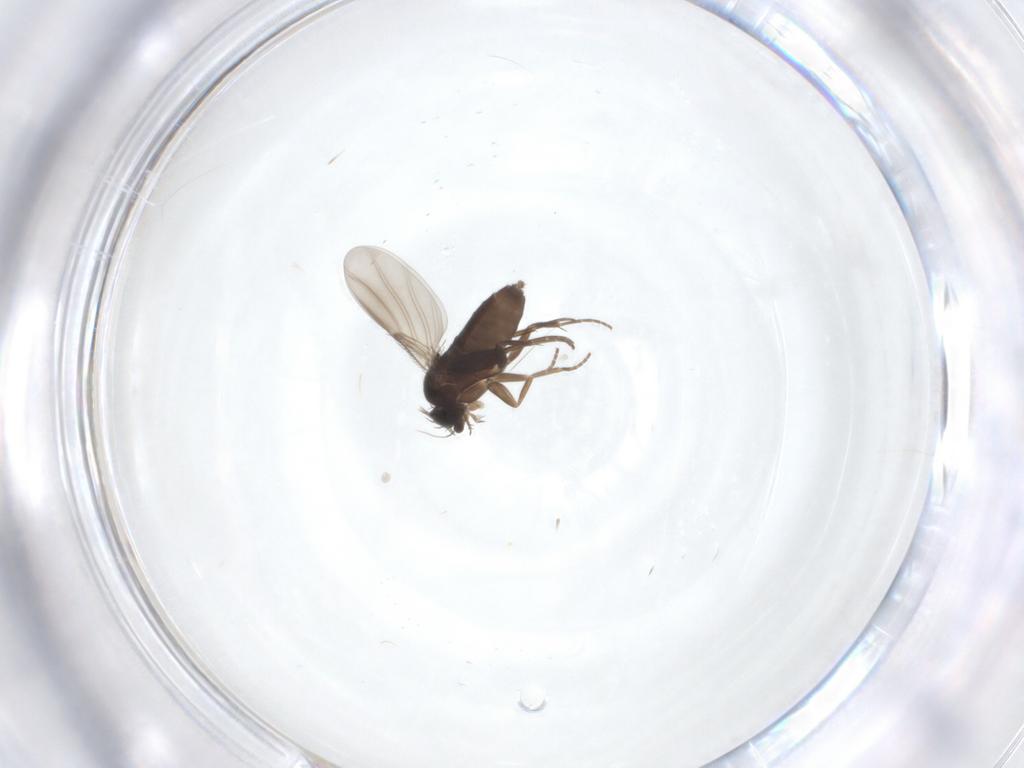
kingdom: Animalia
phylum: Arthropoda
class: Insecta
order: Diptera
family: Phoridae
